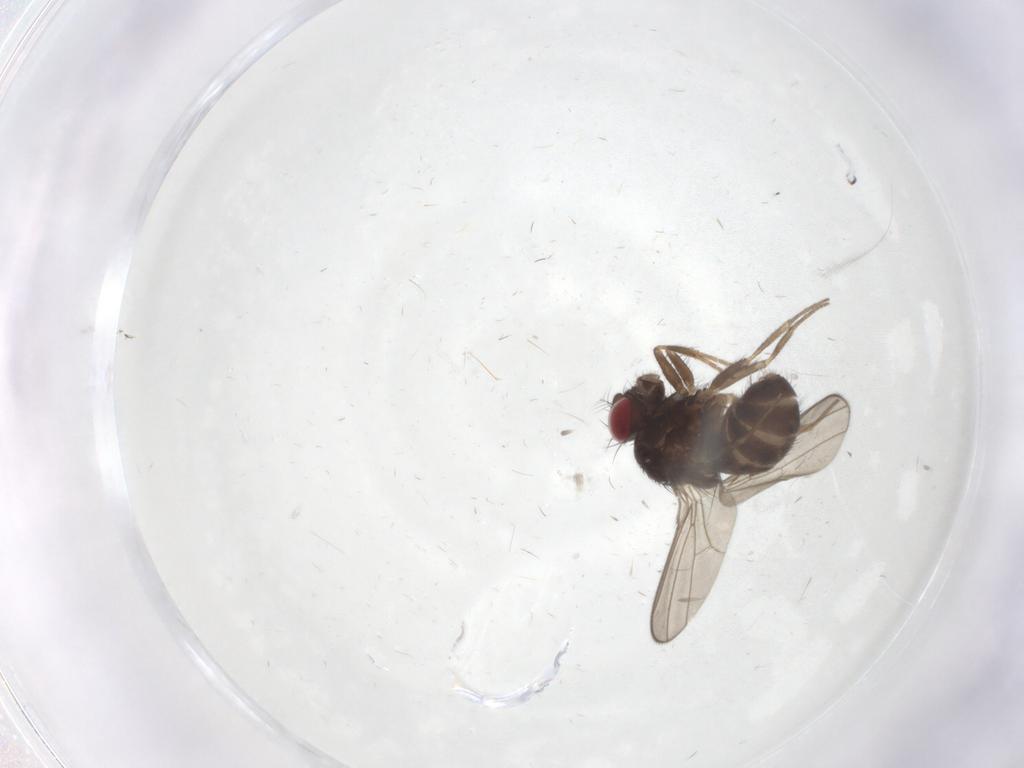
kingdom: Animalia
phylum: Arthropoda
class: Insecta
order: Diptera
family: Drosophilidae
